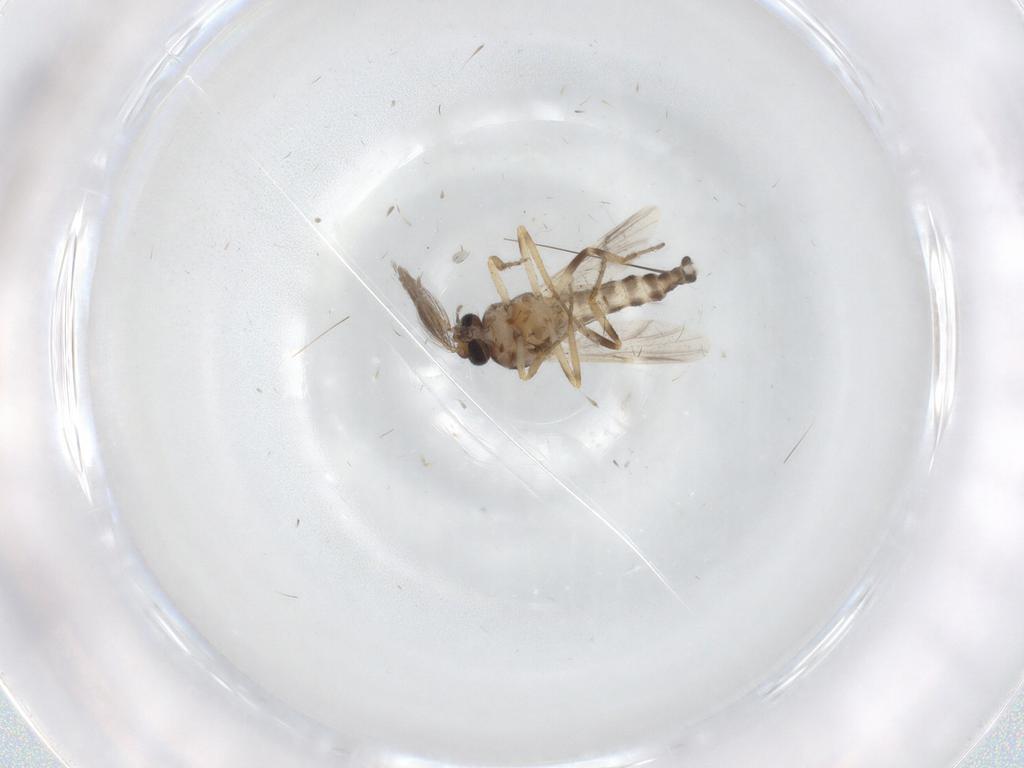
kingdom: Animalia
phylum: Arthropoda
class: Insecta
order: Diptera
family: Ceratopogonidae
